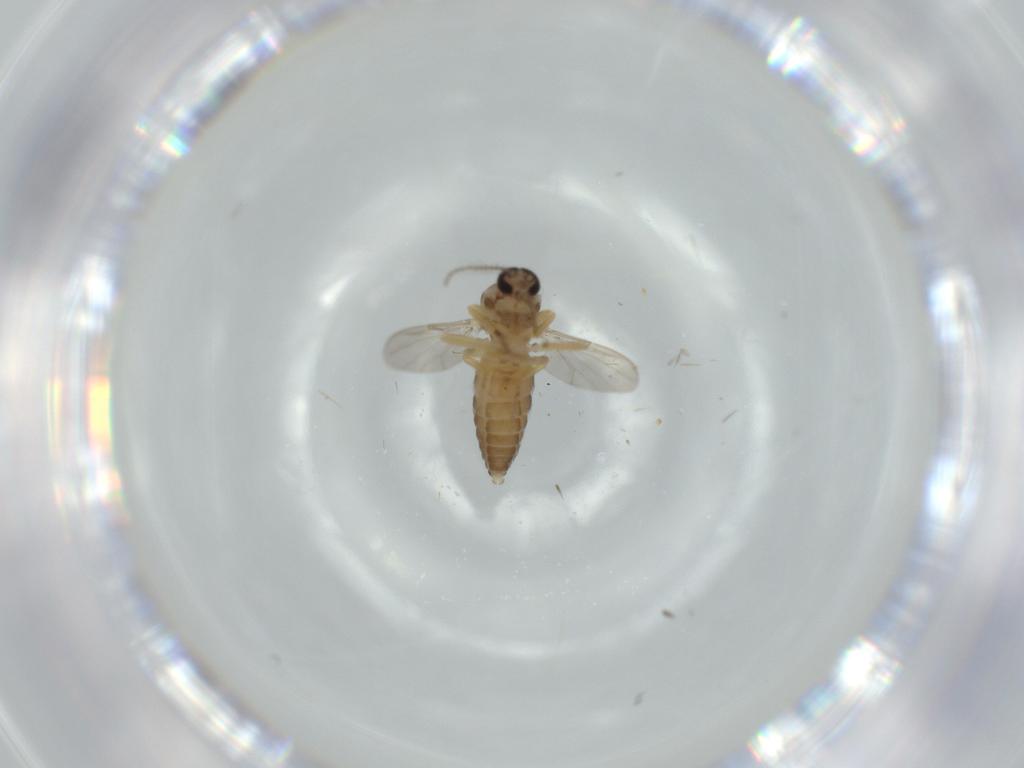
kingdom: Animalia
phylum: Arthropoda
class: Insecta
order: Diptera
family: Ceratopogonidae
